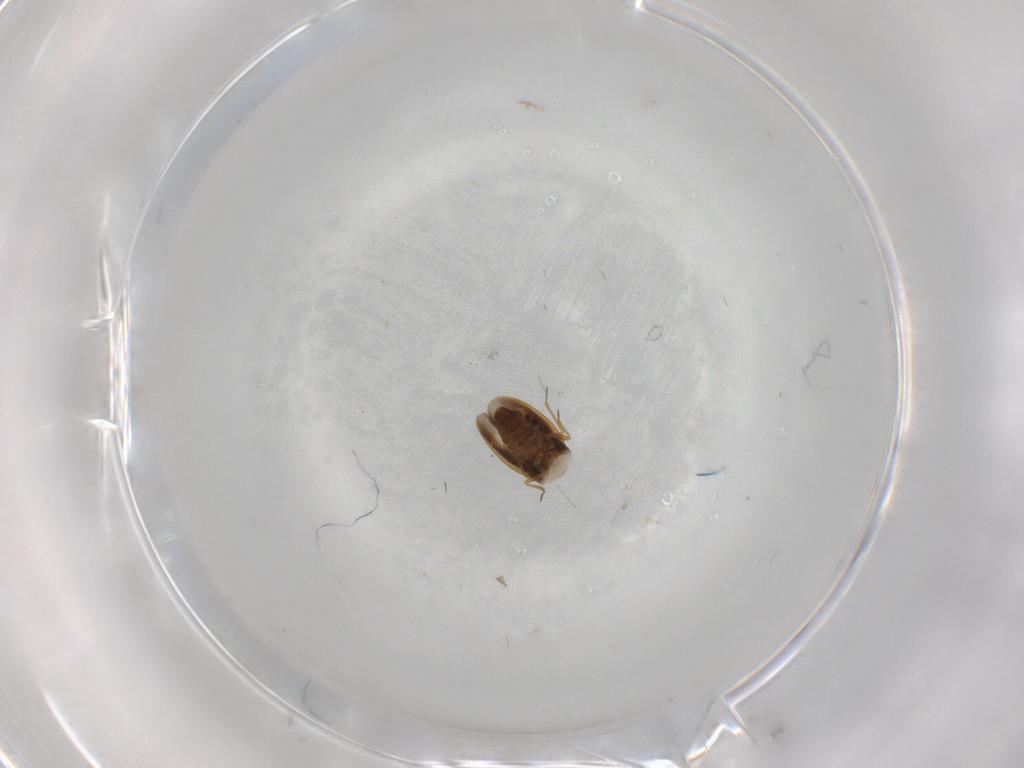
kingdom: Animalia
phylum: Arthropoda
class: Insecta
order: Hemiptera
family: Schizopteridae
